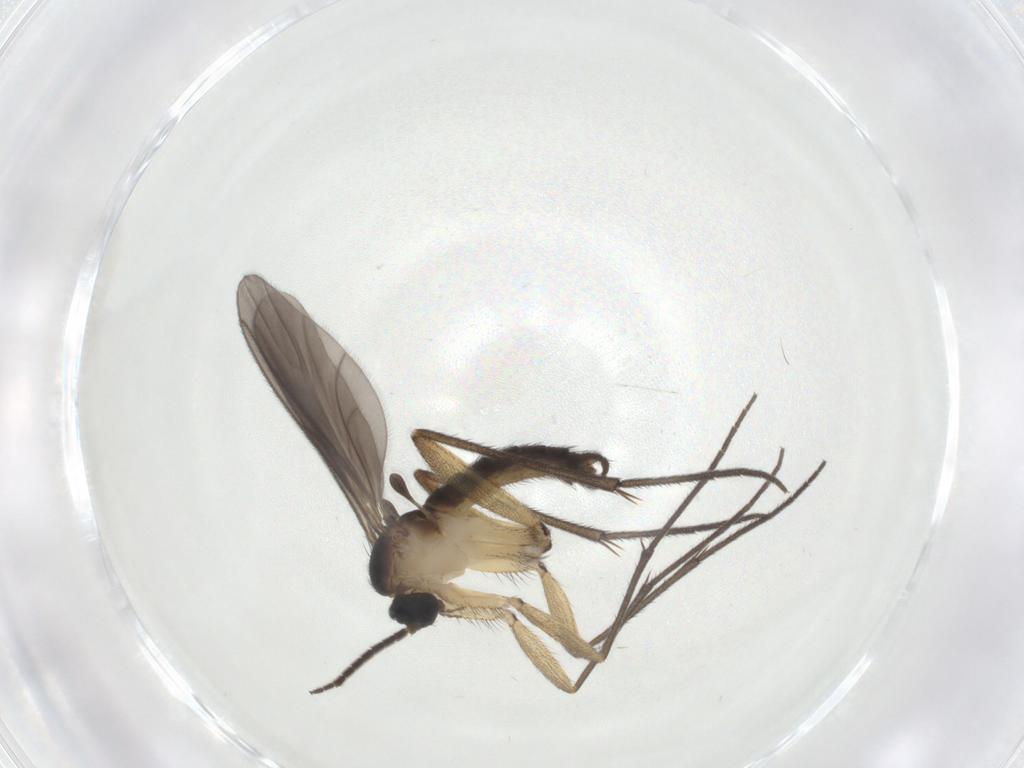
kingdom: Animalia
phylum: Arthropoda
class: Insecta
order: Diptera
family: Sciaridae
